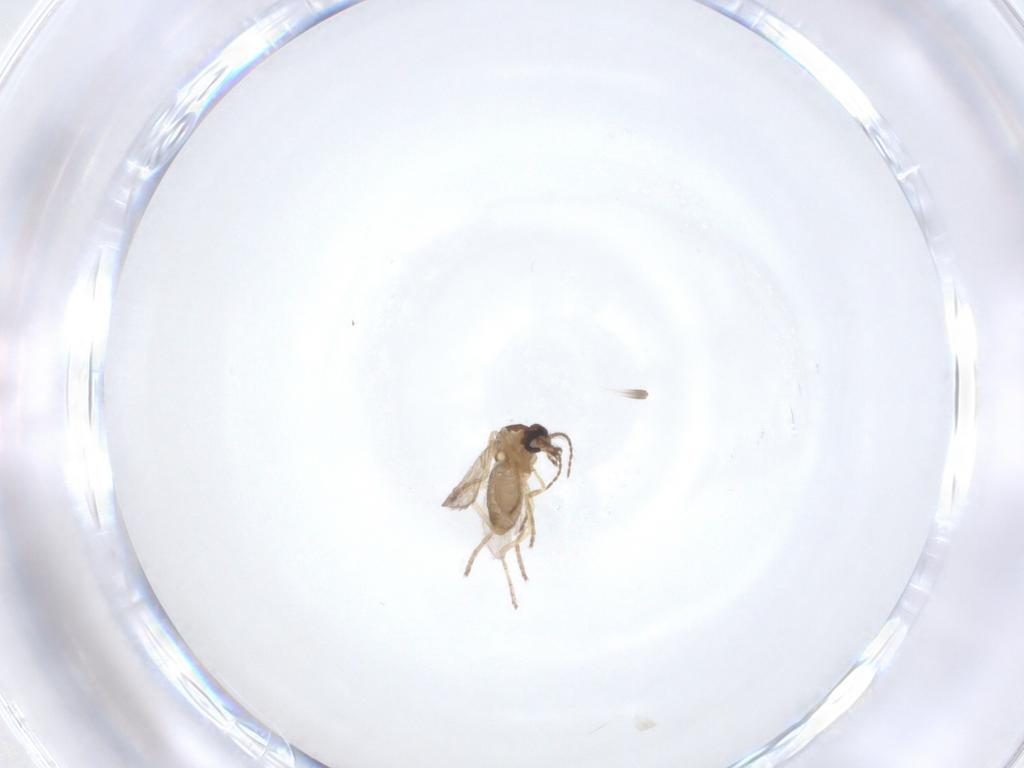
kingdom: Animalia
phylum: Arthropoda
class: Insecta
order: Diptera
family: Ceratopogonidae
